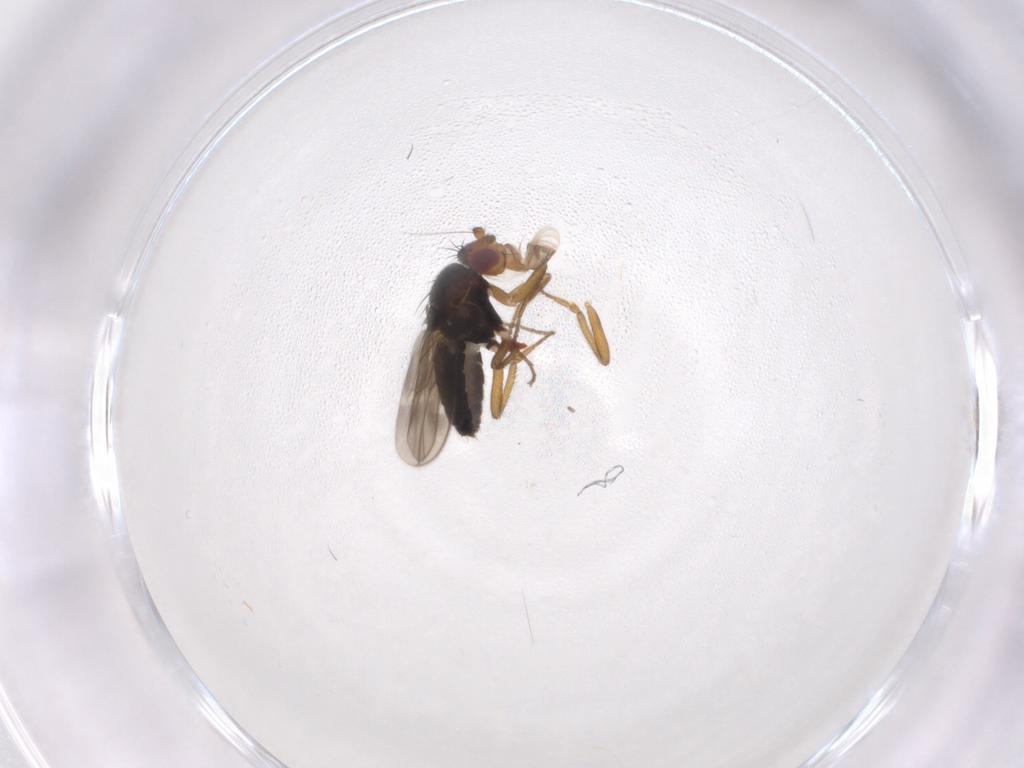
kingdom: Animalia
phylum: Arthropoda
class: Insecta
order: Diptera
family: Sphaeroceridae
